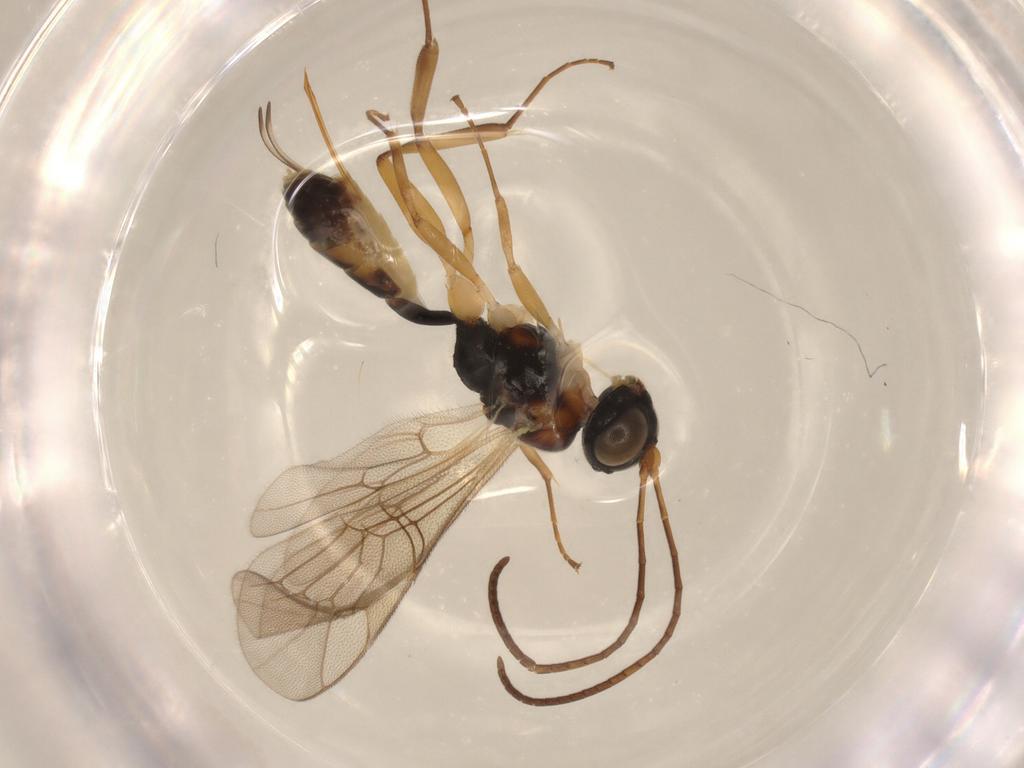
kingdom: Animalia
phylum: Arthropoda
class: Insecta
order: Hymenoptera
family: Ichneumonidae
